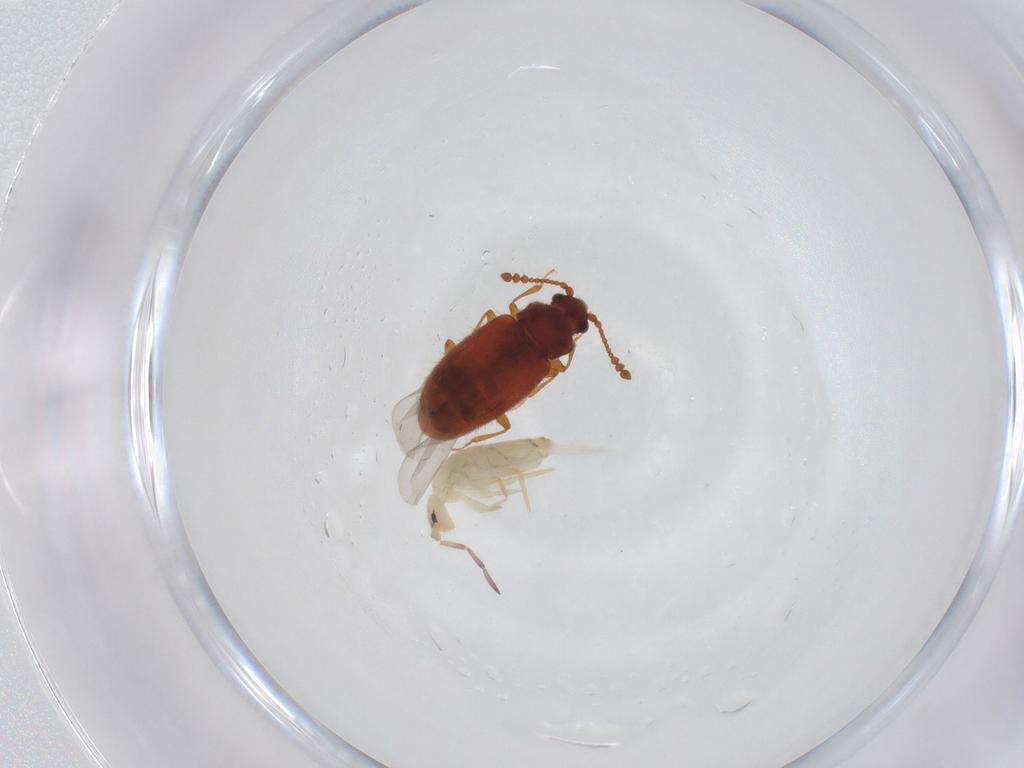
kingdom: Animalia
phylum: Arthropoda
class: Insecta
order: Coleoptera
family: Cryptophagidae
